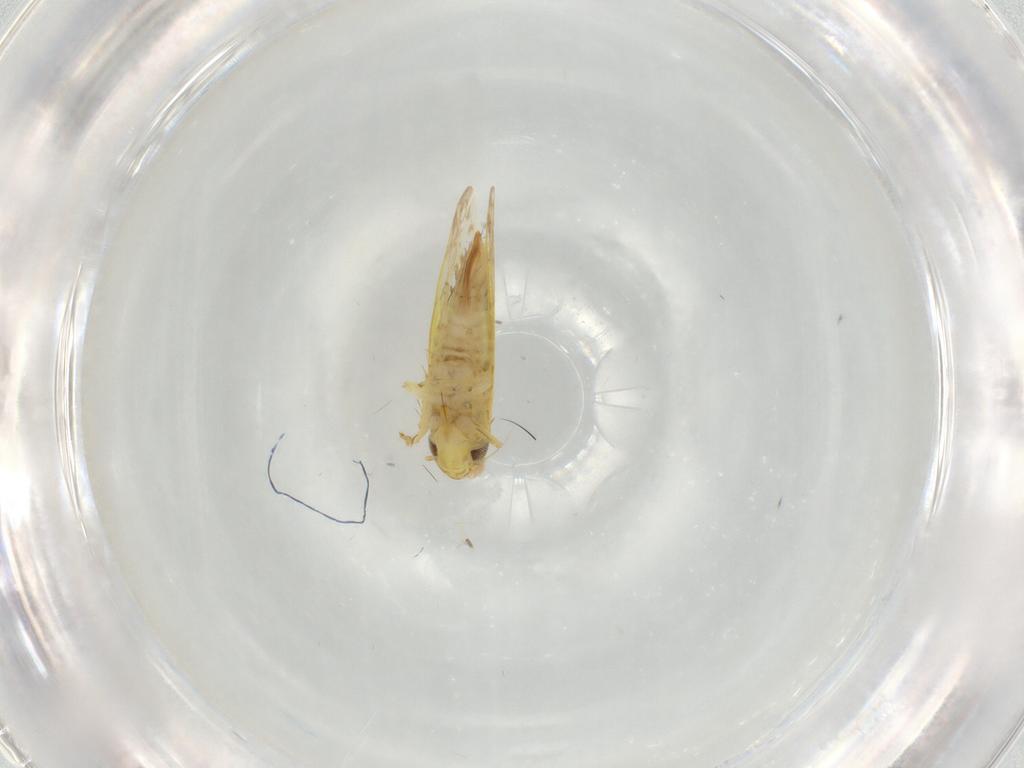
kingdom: Animalia
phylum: Arthropoda
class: Insecta
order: Hemiptera
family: Cicadellidae
